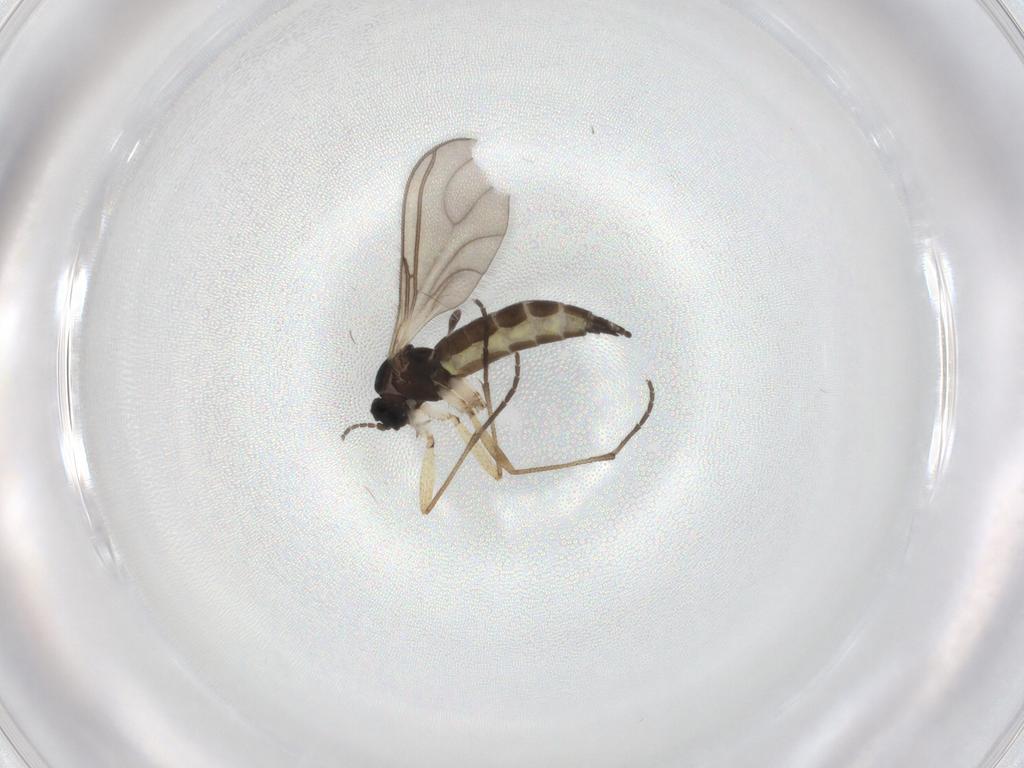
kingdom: Animalia
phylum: Arthropoda
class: Insecta
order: Diptera
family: Sciaridae
